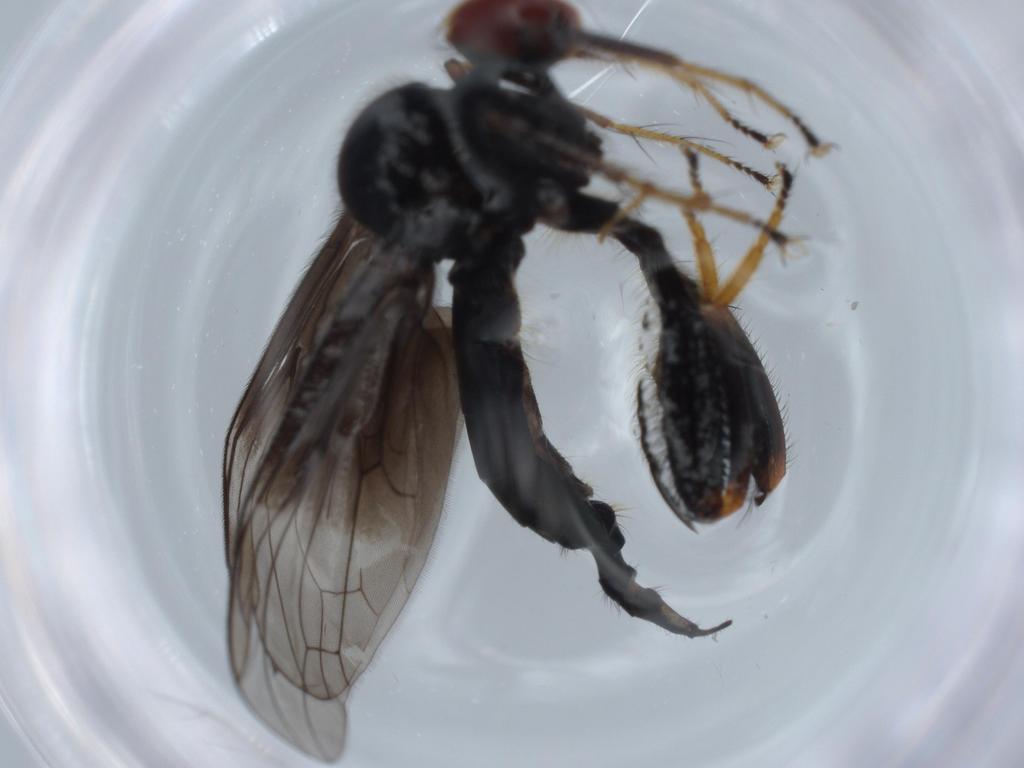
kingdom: Animalia
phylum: Arthropoda
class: Insecta
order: Diptera
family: Hybotidae
